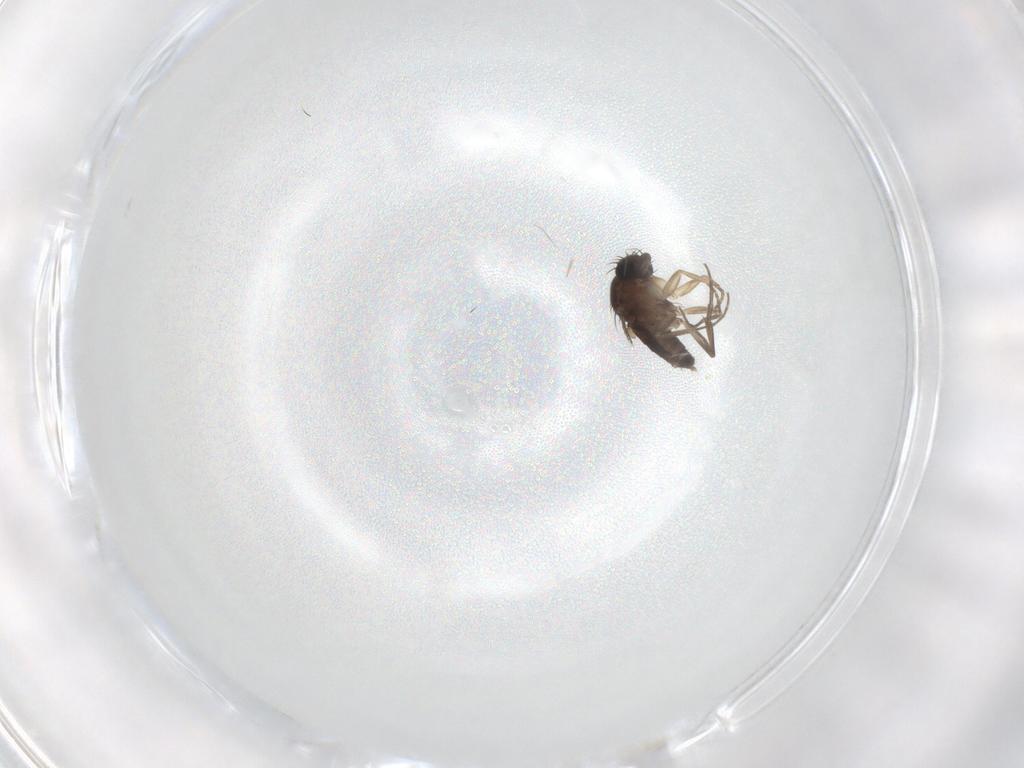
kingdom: Animalia
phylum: Arthropoda
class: Insecta
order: Diptera
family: Phoridae
